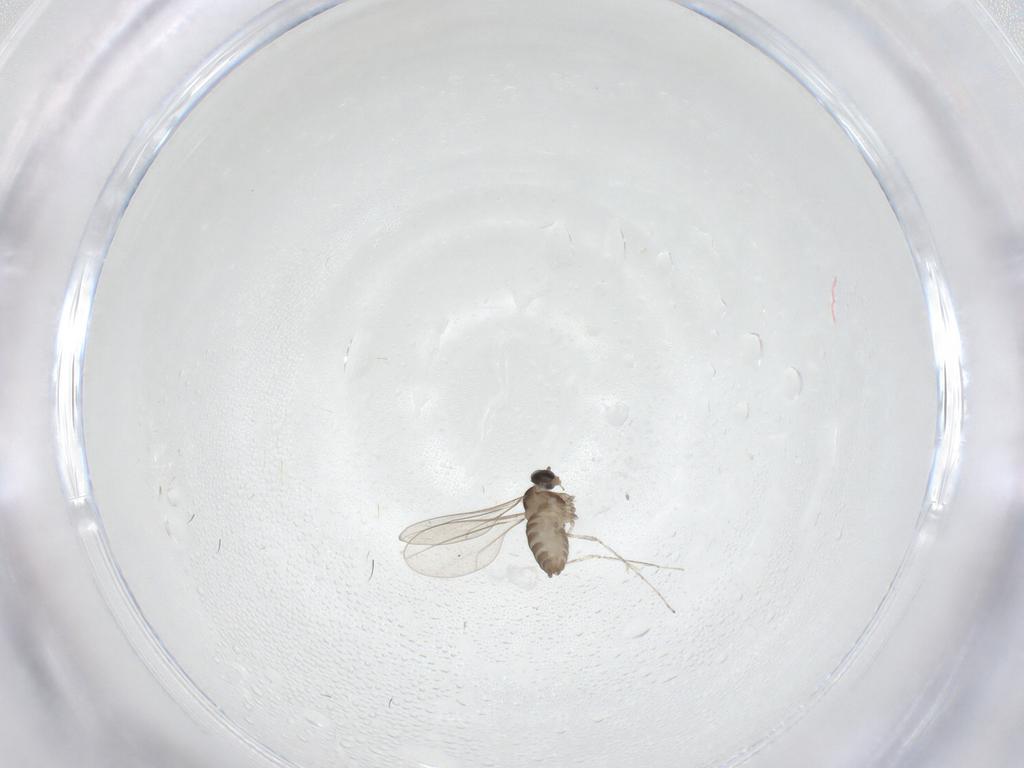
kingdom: Animalia
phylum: Arthropoda
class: Insecta
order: Diptera
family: Cecidomyiidae
